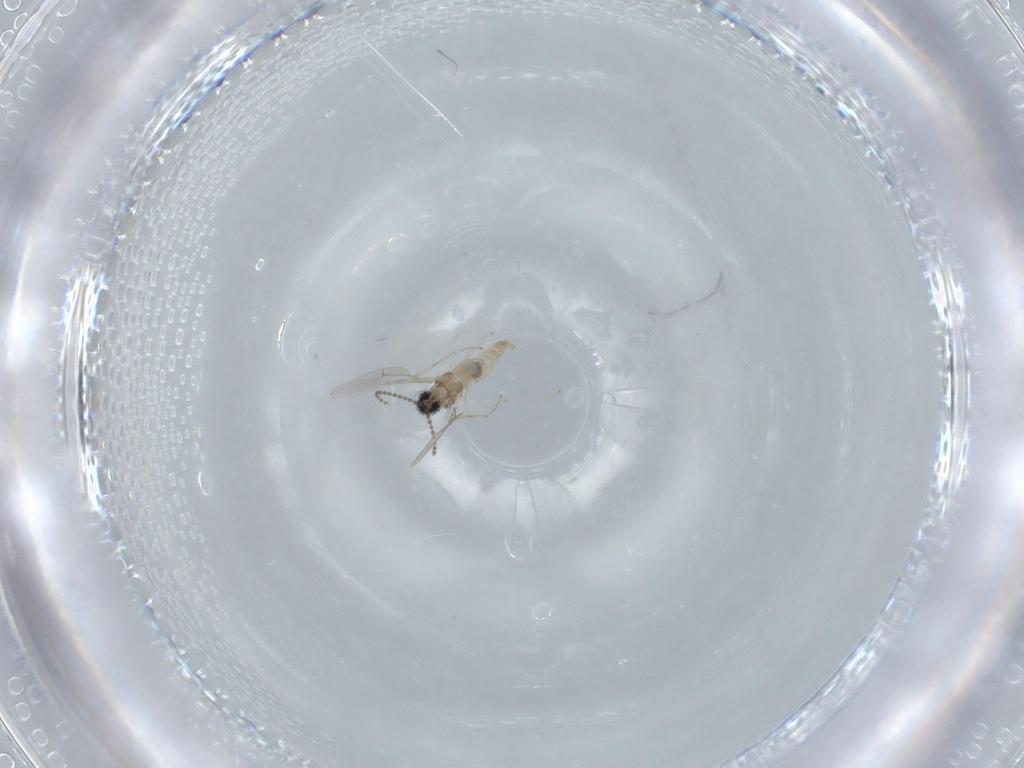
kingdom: Animalia
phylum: Arthropoda
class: Insecta
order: Diptera
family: Cecidomyiidae
